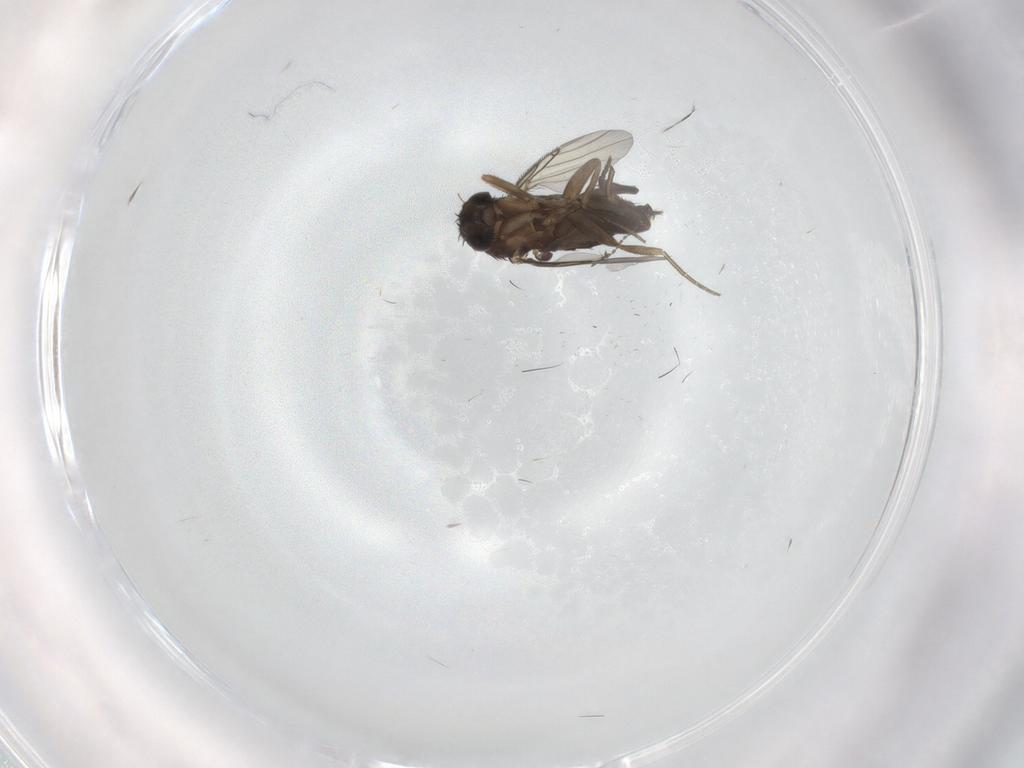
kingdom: Animalia
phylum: Arthropoda
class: Insecta
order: Diptera
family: Phoridae
